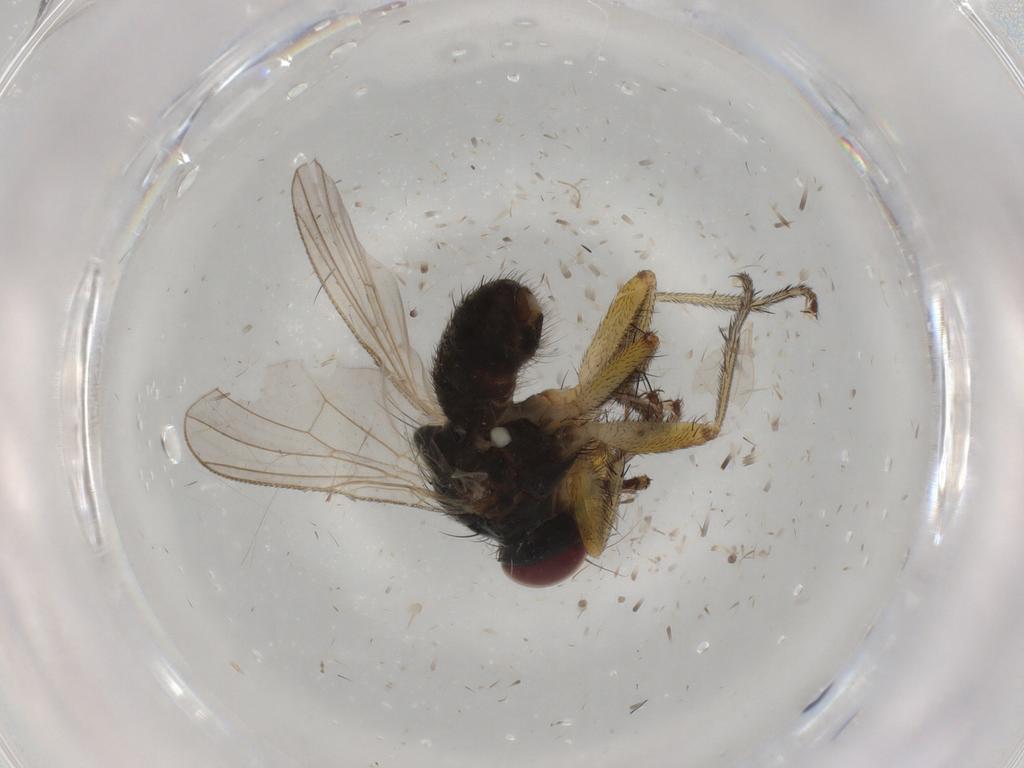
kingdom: Animalia
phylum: Arthropoda
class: Insecta
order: Diptera
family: Muscidae
